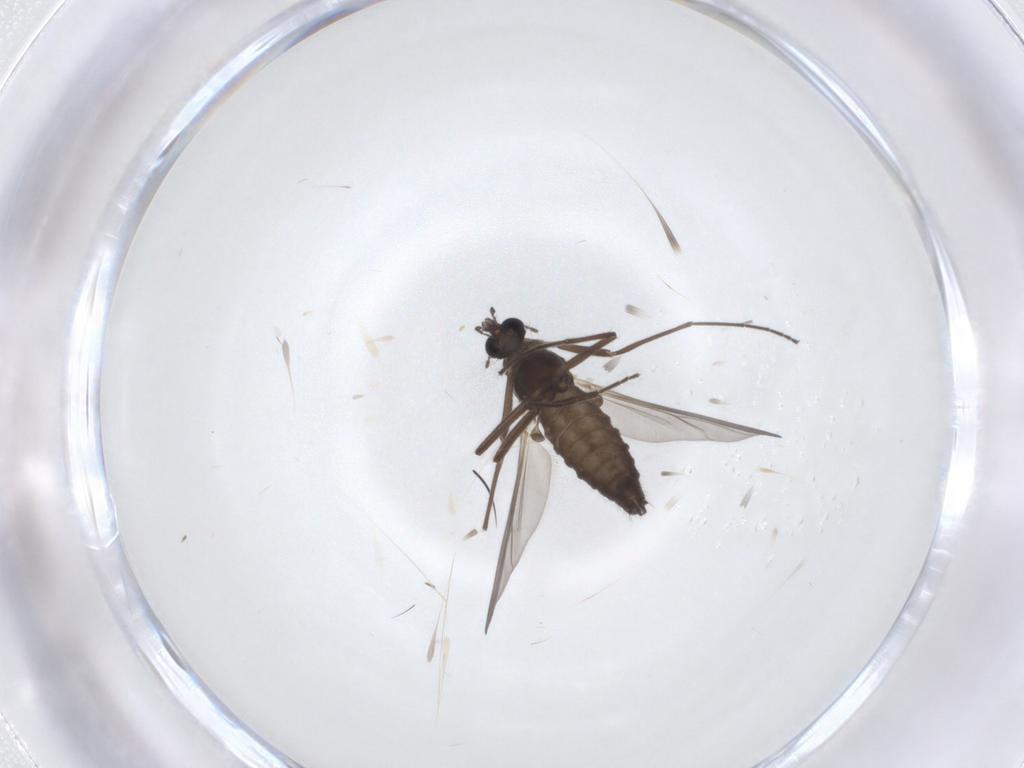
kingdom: Animalia
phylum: Arthropoda
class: Insecta
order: Diptera
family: Chironomidae
